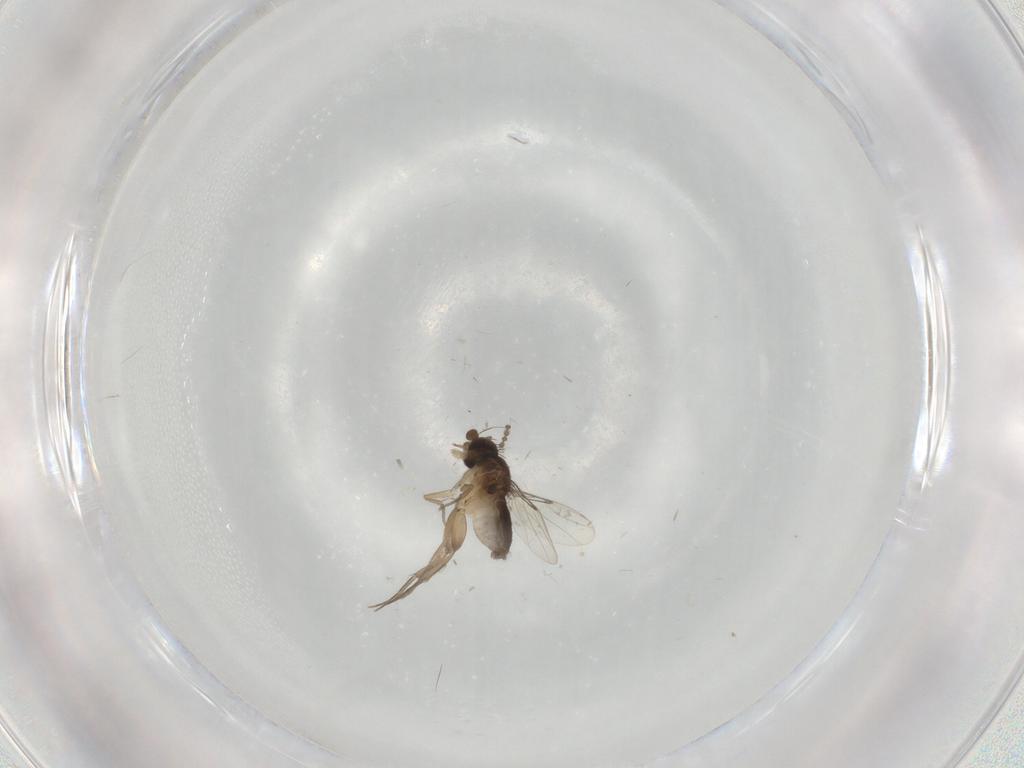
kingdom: Animalia
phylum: Arthropoda
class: Insecta
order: Diptera
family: Phoridae
